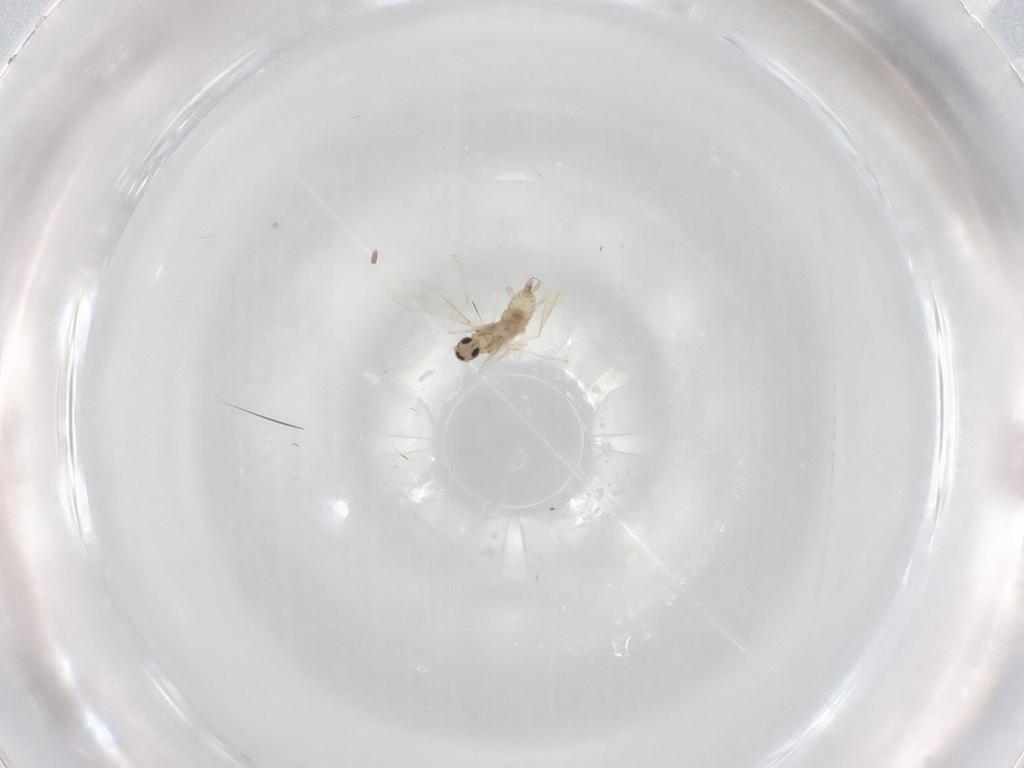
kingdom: Animalia
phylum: Arthropoda
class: Insecta
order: Diptera
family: Cecidomyiidae
